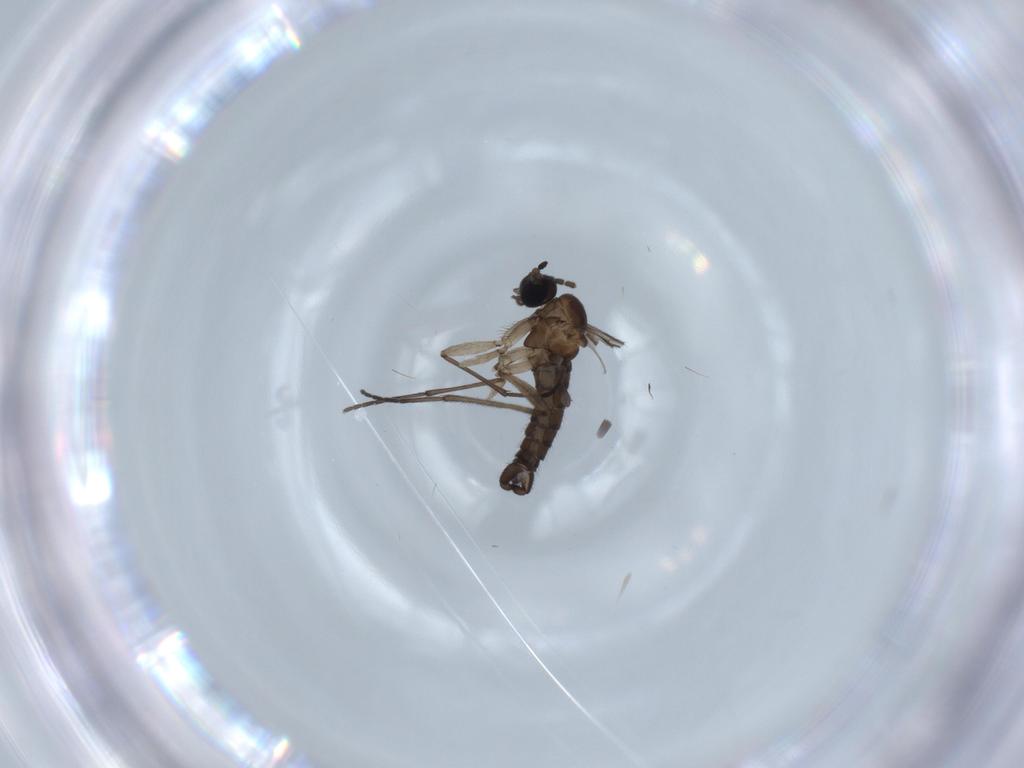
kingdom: Animalia
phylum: Arthropoda
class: Insecta
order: Diptera
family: Sciaridae
